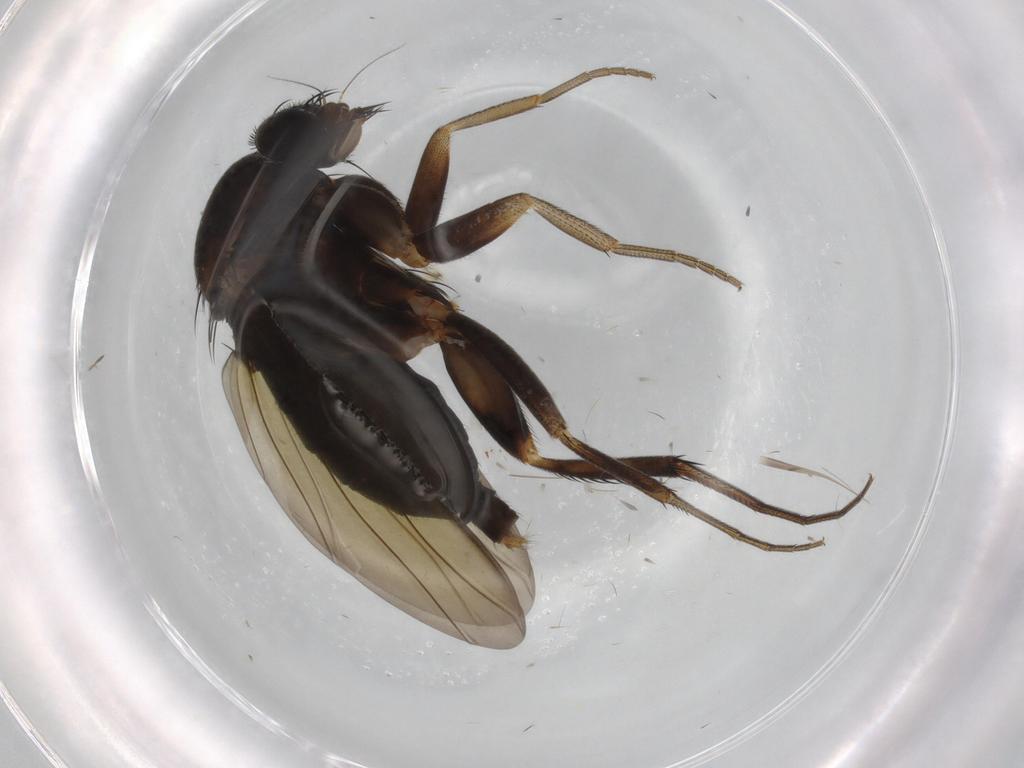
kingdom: Animalia
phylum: Arthropoda
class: Insecta
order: Diptera
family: Phoridae
